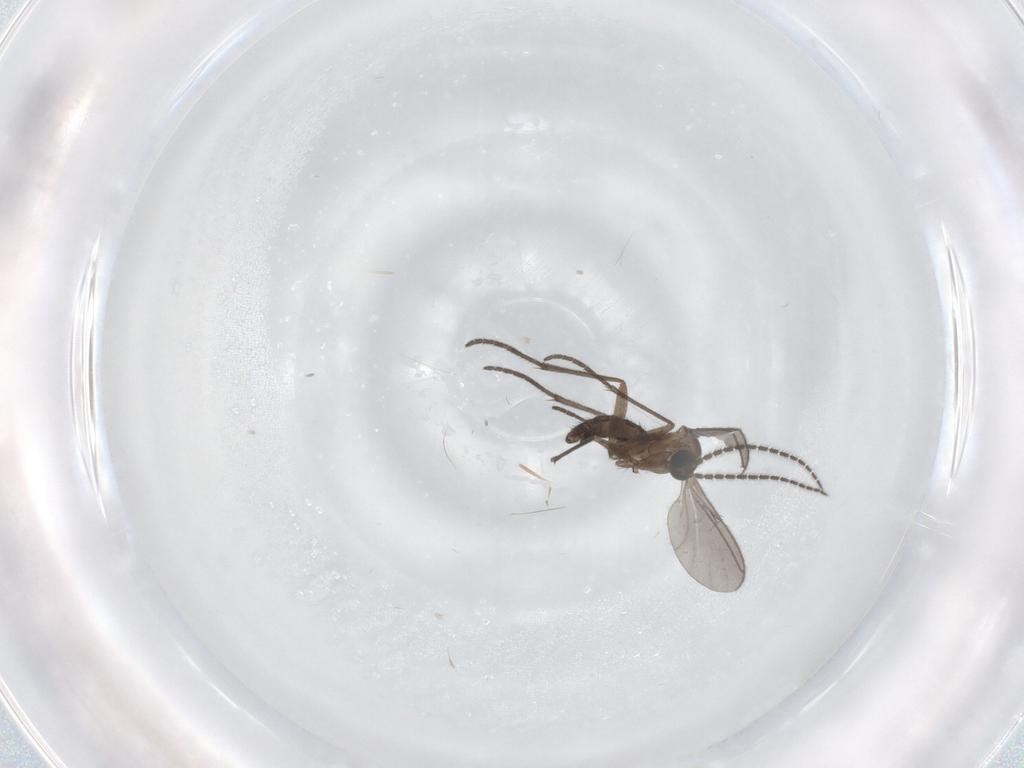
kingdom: Animalia
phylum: Arthropoda
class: Insecta
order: Diptera
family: Sciaridae
